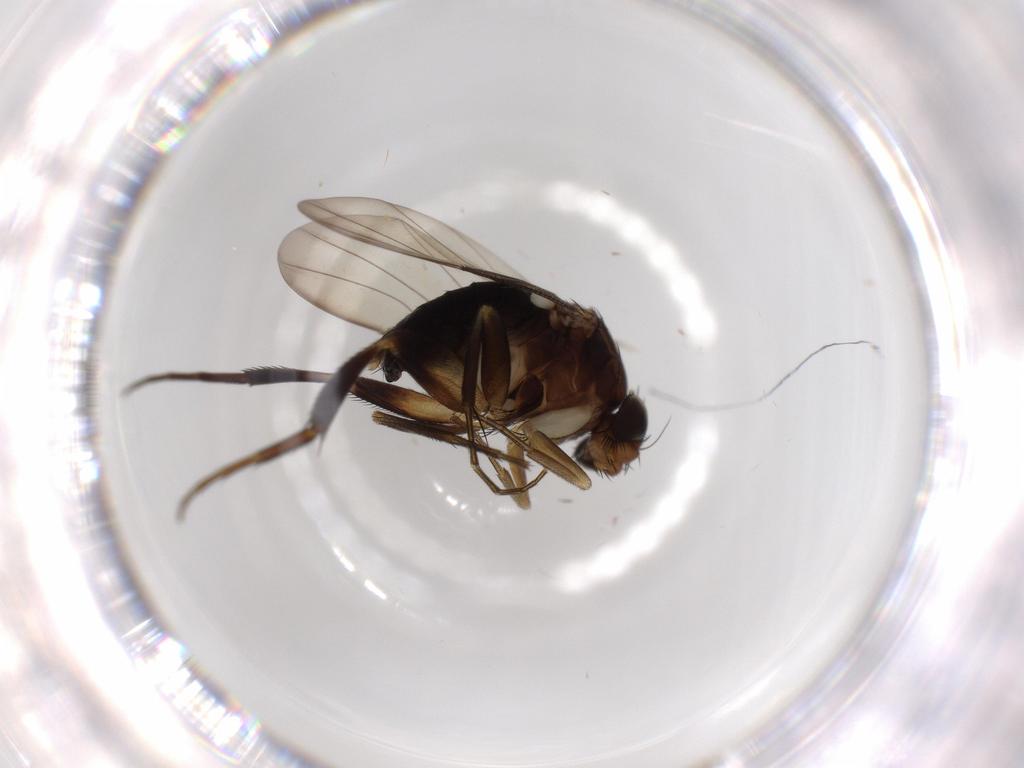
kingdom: Animalia
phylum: Arthropoda
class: Insecta
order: Diptera
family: Phoridae
